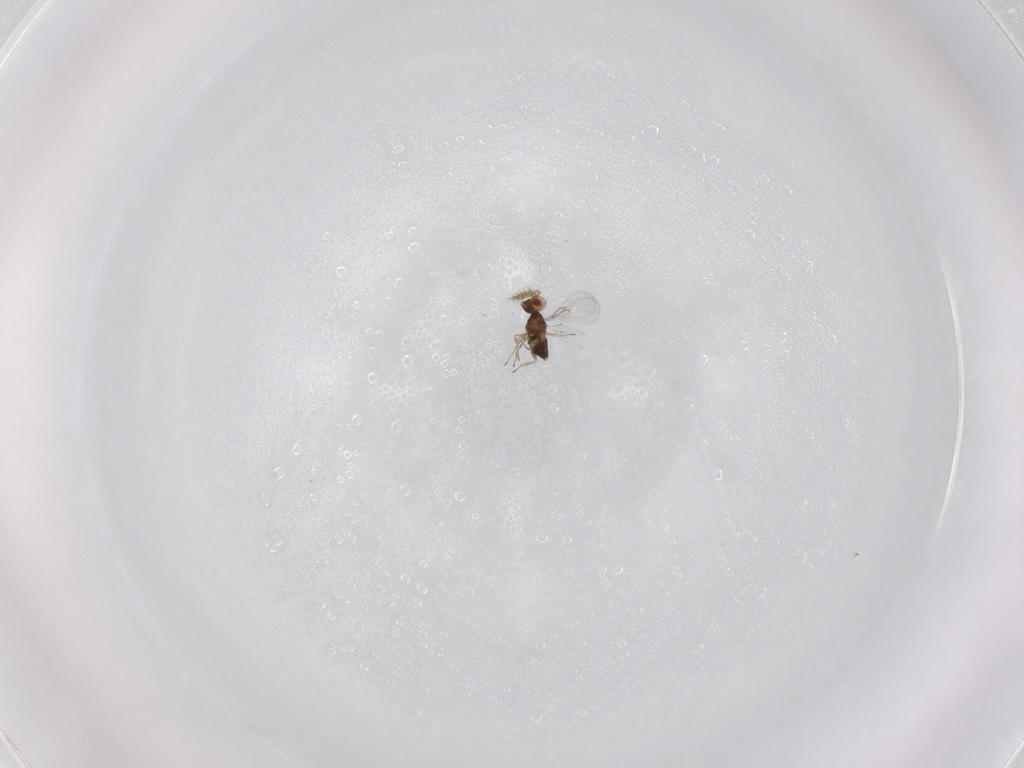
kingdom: Animalia
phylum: Arthropoda
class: Insecta
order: Hymenoptera
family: Trichogrammatidae
